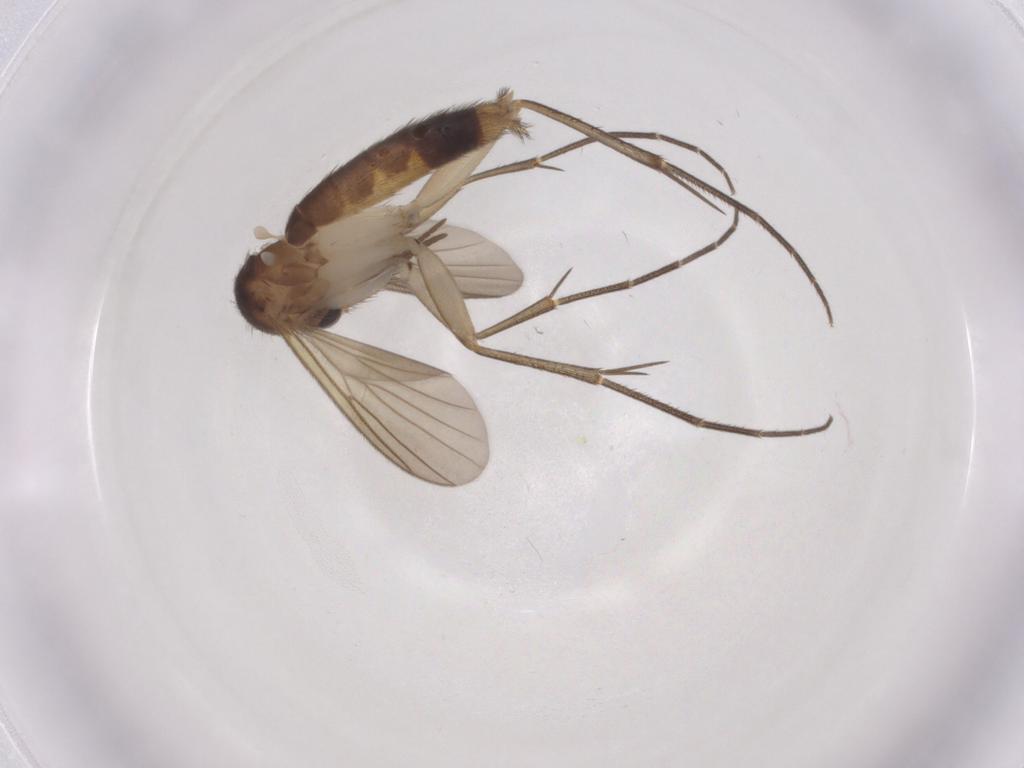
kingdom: Animalia
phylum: Arthropoda
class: Insecta
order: Diptera
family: Mycetophilidae
